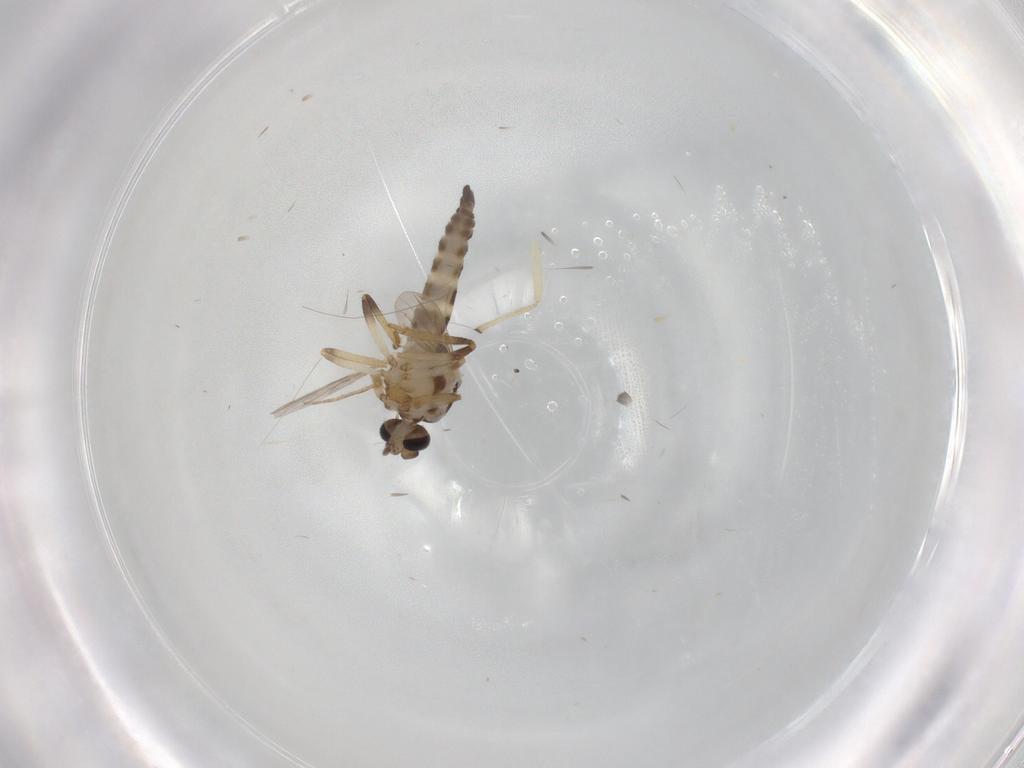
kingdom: Animalia
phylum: Arthropoda
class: Insecta
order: Diptera
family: Ceratopogonidae
